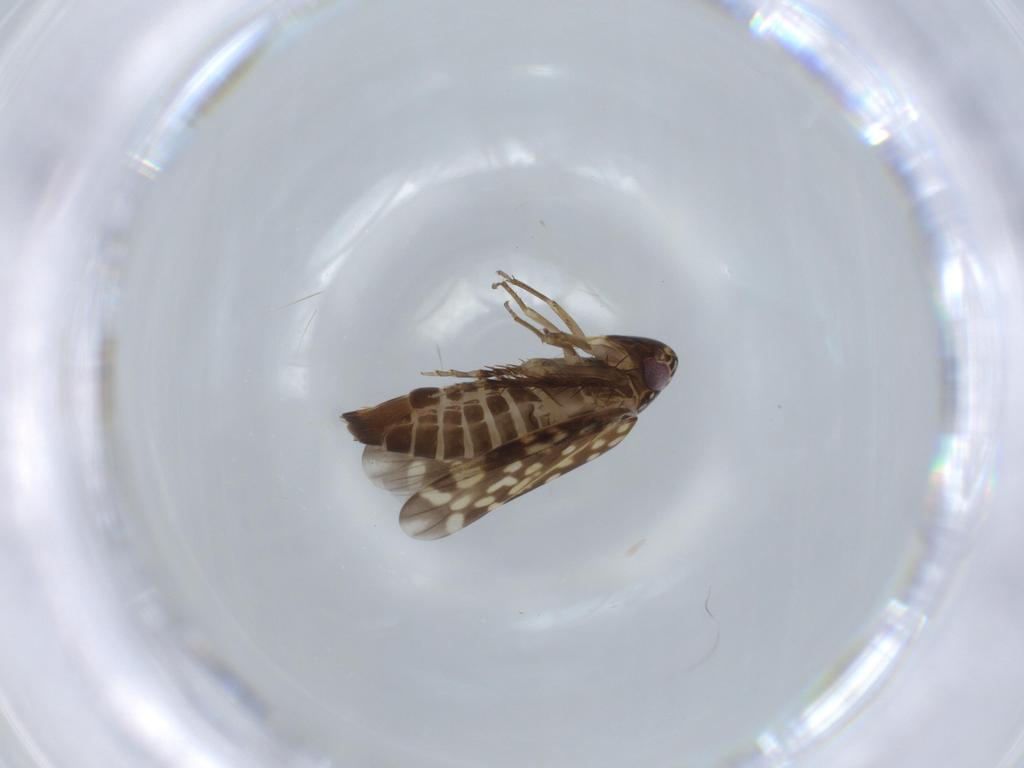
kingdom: Animalia
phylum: Arthropoda
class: Insecta
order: Hemiptera
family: Cicadellidae
